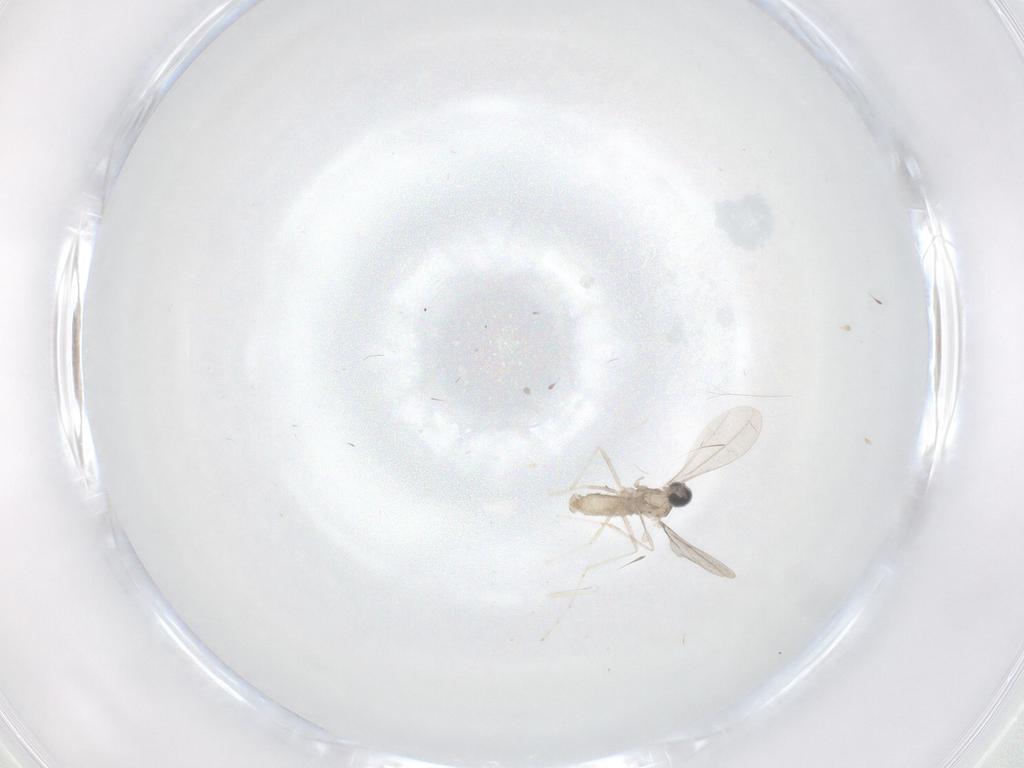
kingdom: Animalia
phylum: Arthropoda
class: Insecta
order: Diptera
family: Cecidomyiidae
